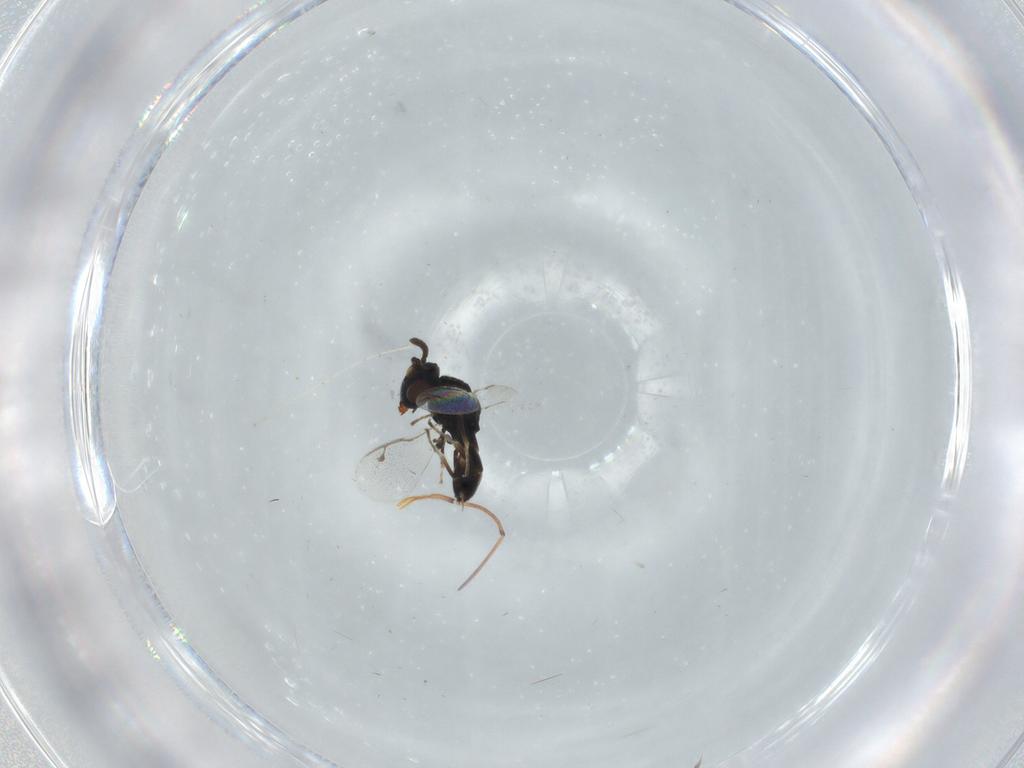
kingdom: Animalia
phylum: Arthropoda
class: Insecta
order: Hymenoptera
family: Pteromalidae
